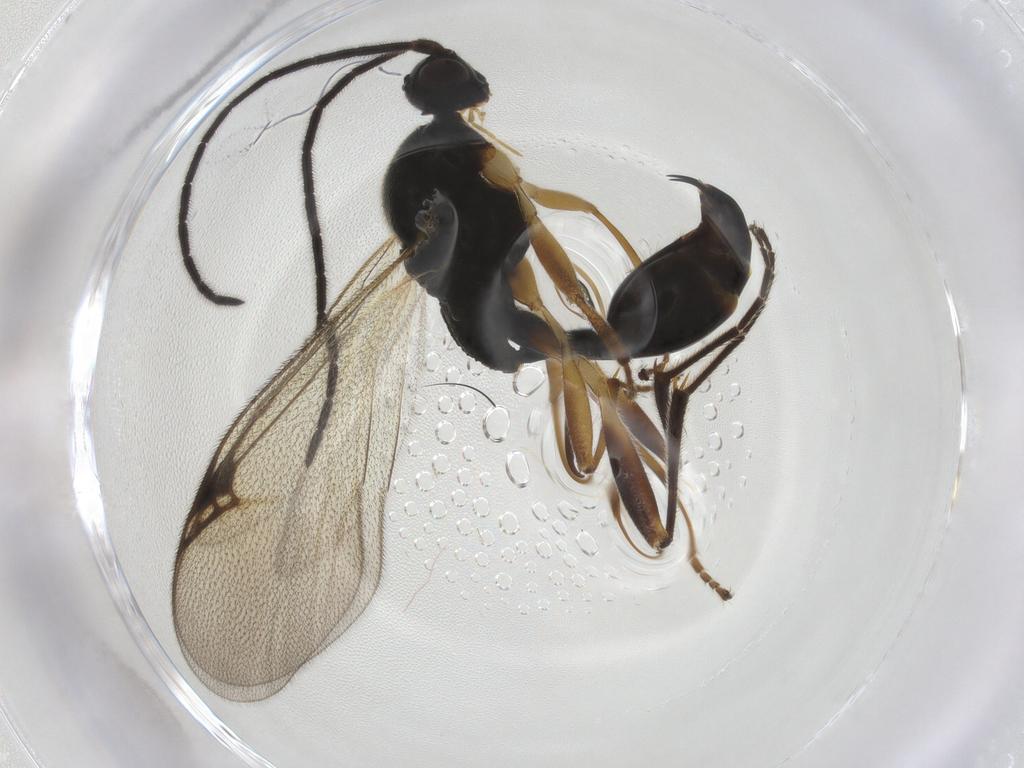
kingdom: Animalia
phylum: Arthropoda
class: Insecta
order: Hymenoptera
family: Proctotrupidae
